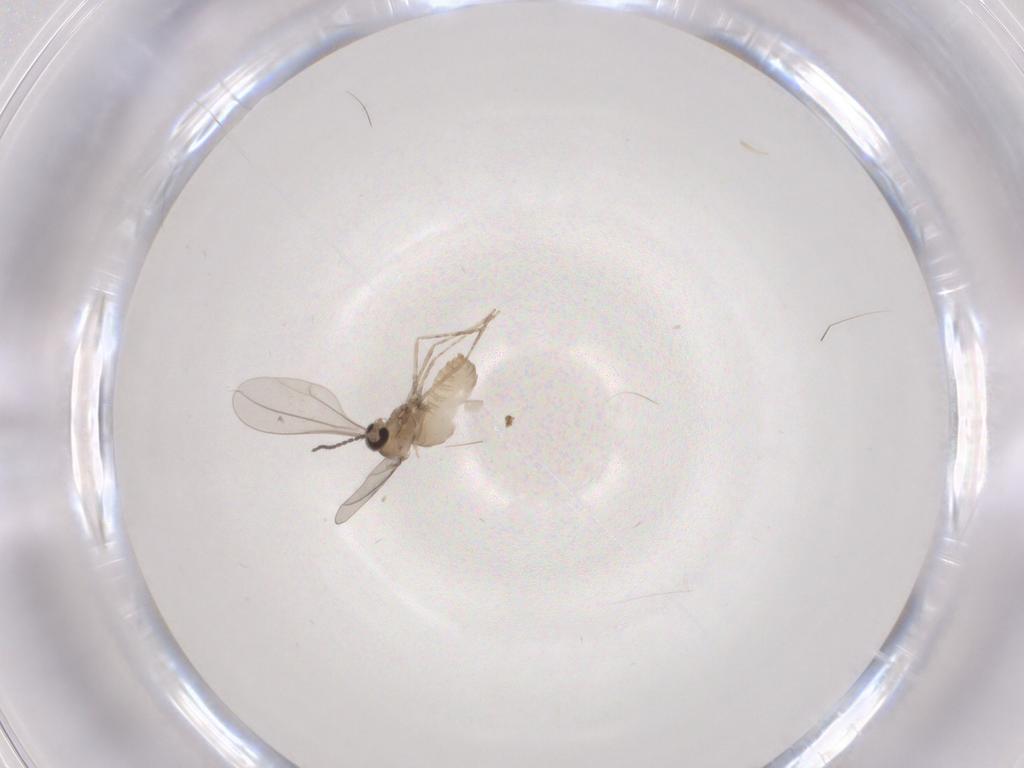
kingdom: Animalia
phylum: Arthropoda
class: Insecta
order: Diptera
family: Cecidomyiidae
